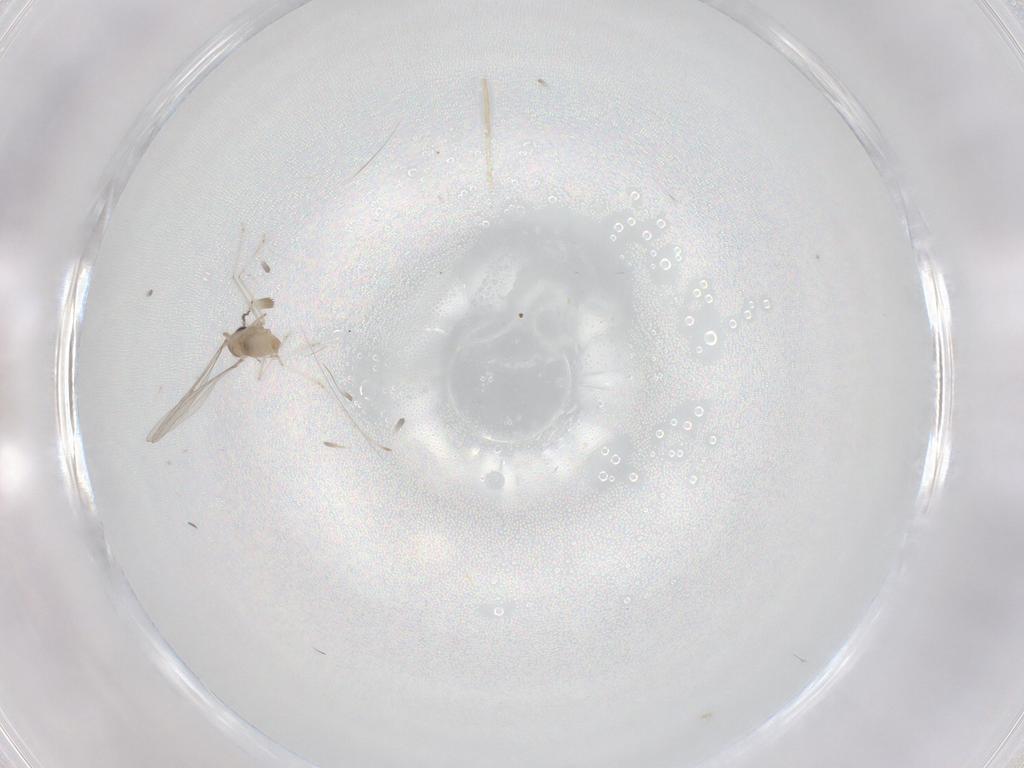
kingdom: Animalia
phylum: Arthropoda
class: Insecta
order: Diptera
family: Cecidomyiidae
